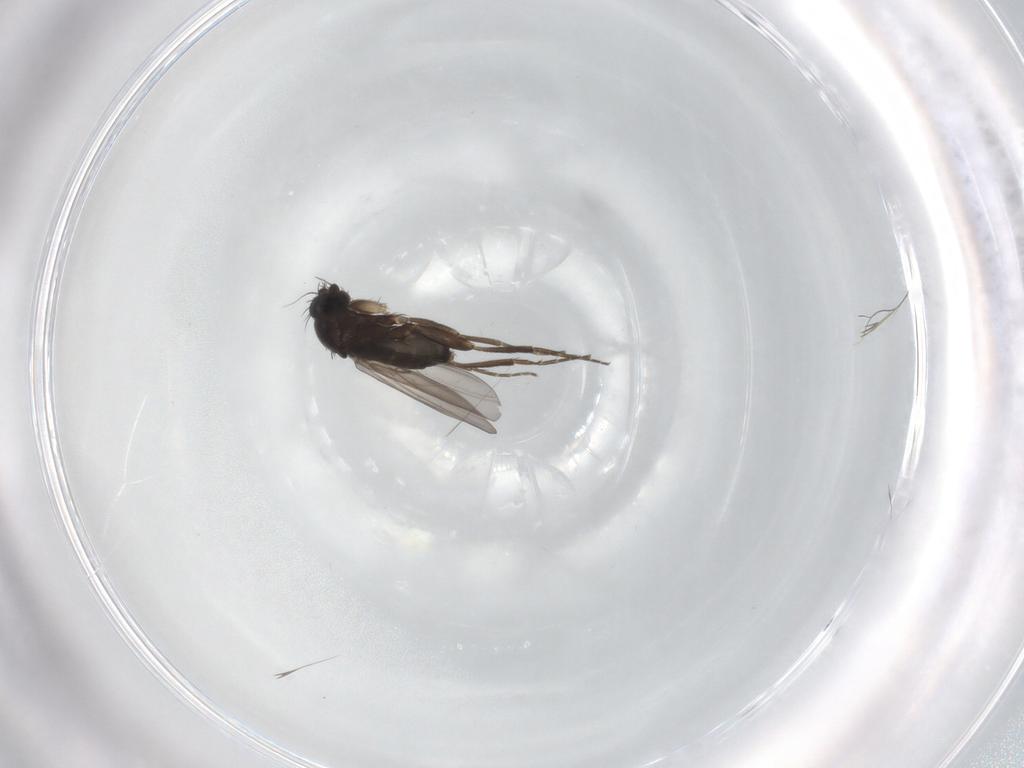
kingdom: Animalia
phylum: Arthropoda
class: Insecta
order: Diptera
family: Phoridae
